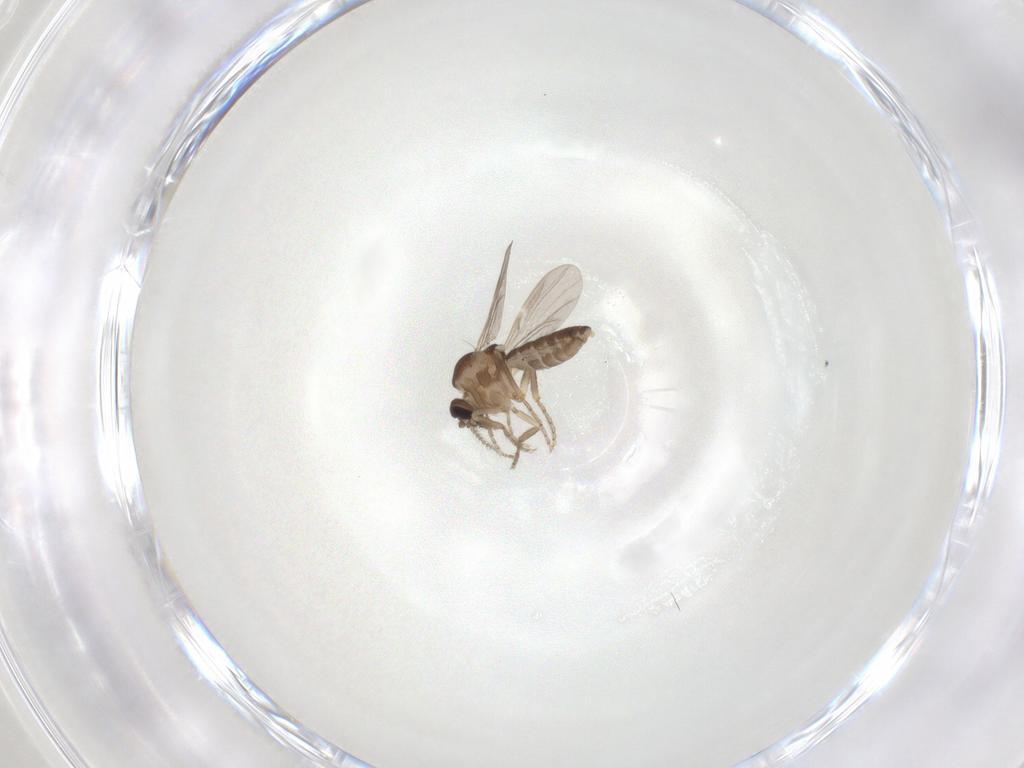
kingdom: Animalia
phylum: Arthropoda
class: Insecta
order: Diptera
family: Ceratopogonidae
